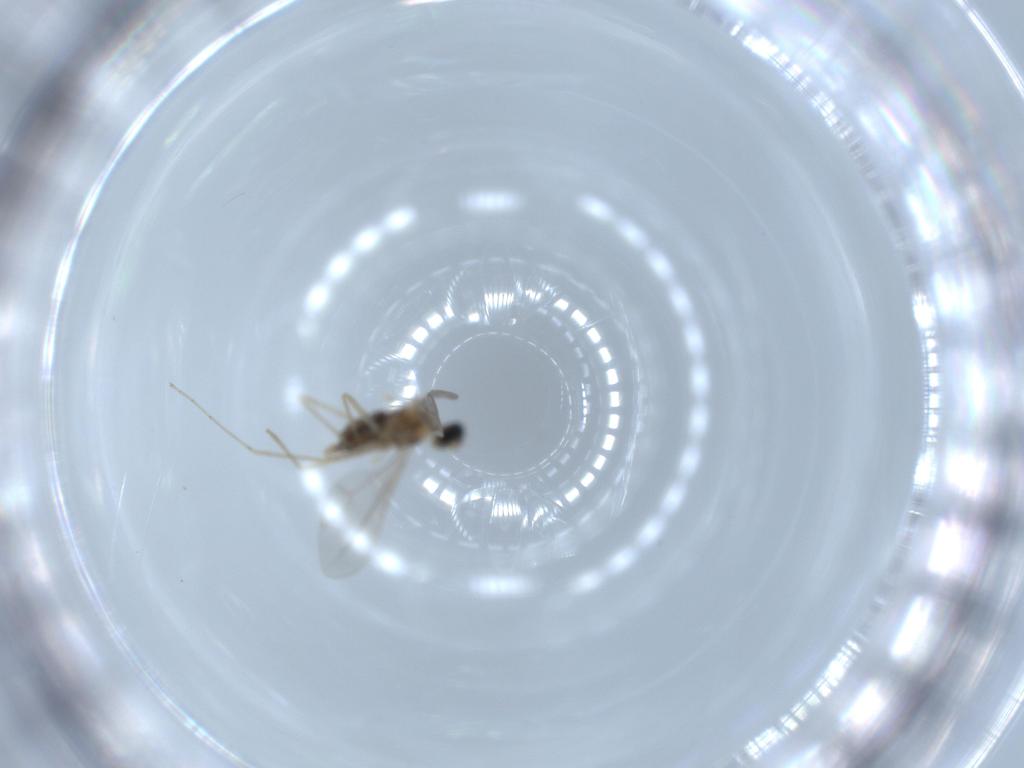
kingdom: Animalia
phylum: Arthropoda
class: Insecta
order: Diptera
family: Cecidomyiidae
